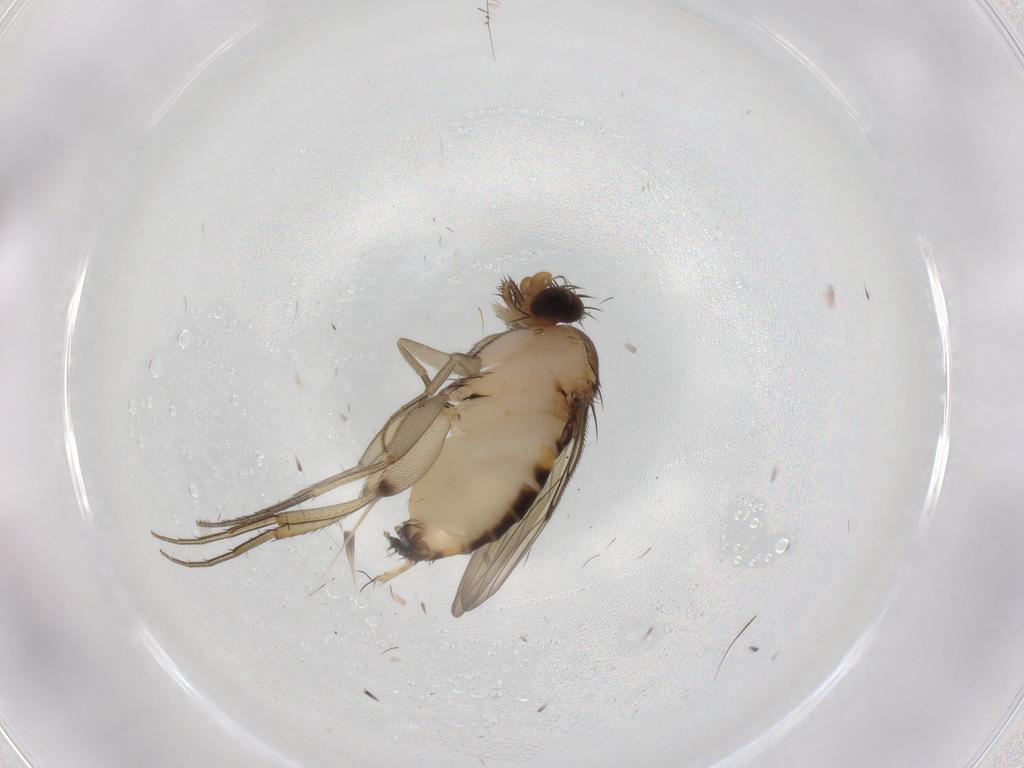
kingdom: Animalia
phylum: Arthropoda
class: Insecta
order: Diptera
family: Phoridae
